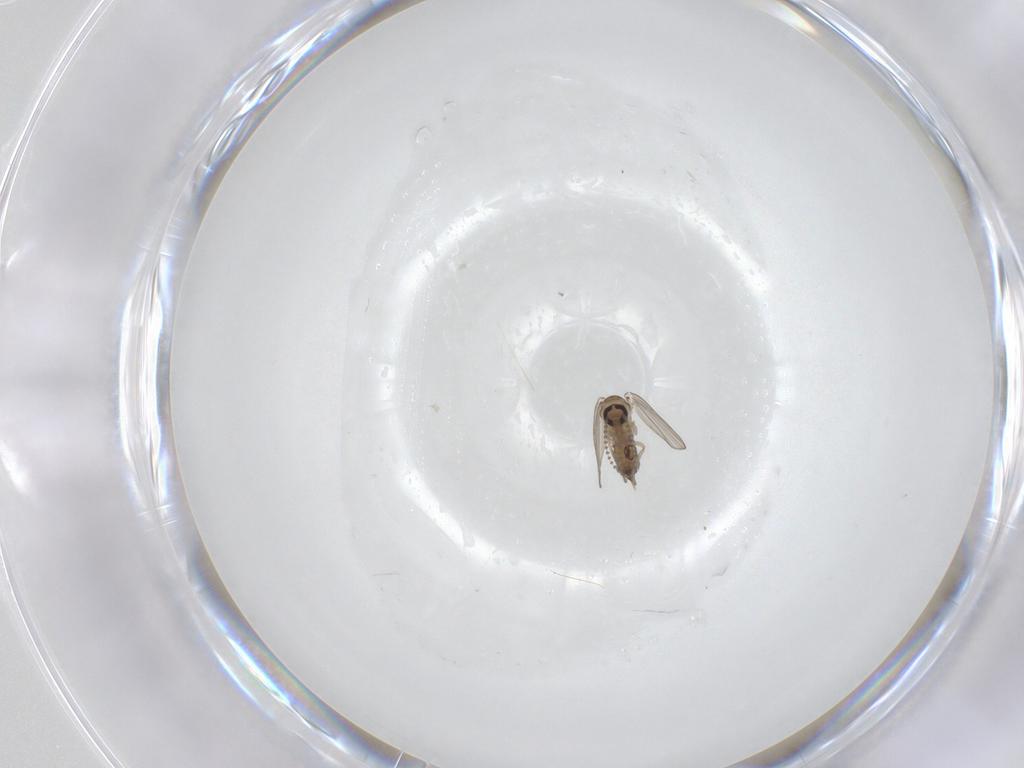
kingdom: Animalia
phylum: Arthropoda
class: Insecta
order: Diptera
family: Psychodidae
